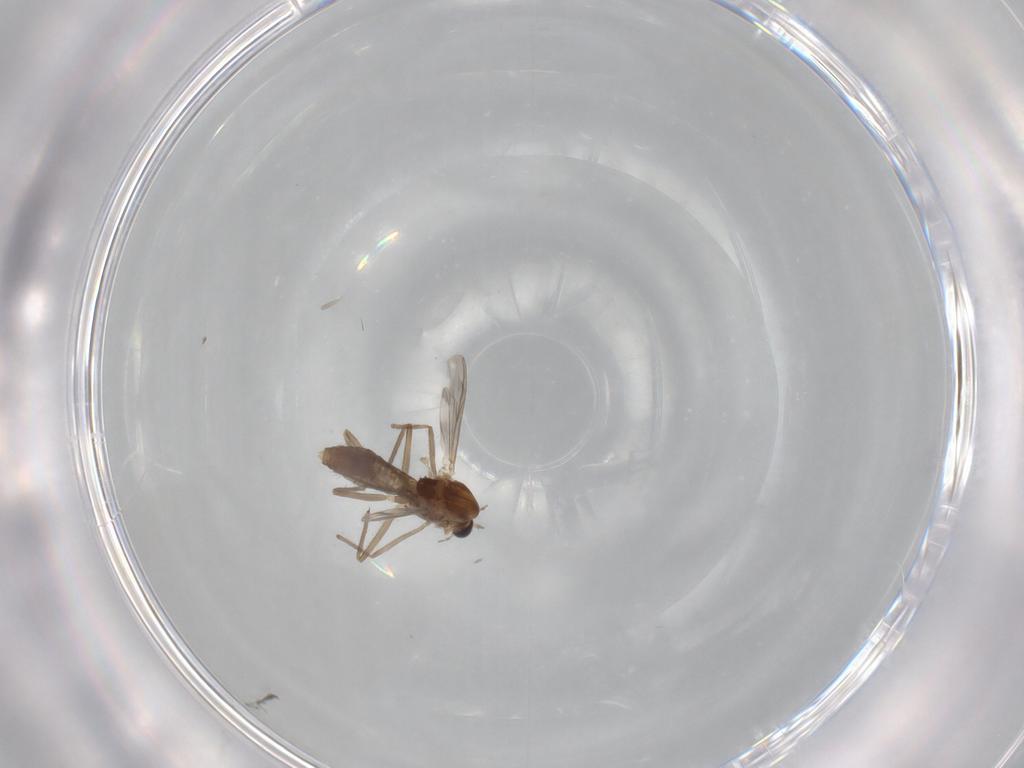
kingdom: Animalia
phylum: Arthropoda
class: Insecta
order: Diptera
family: Chironomidae
